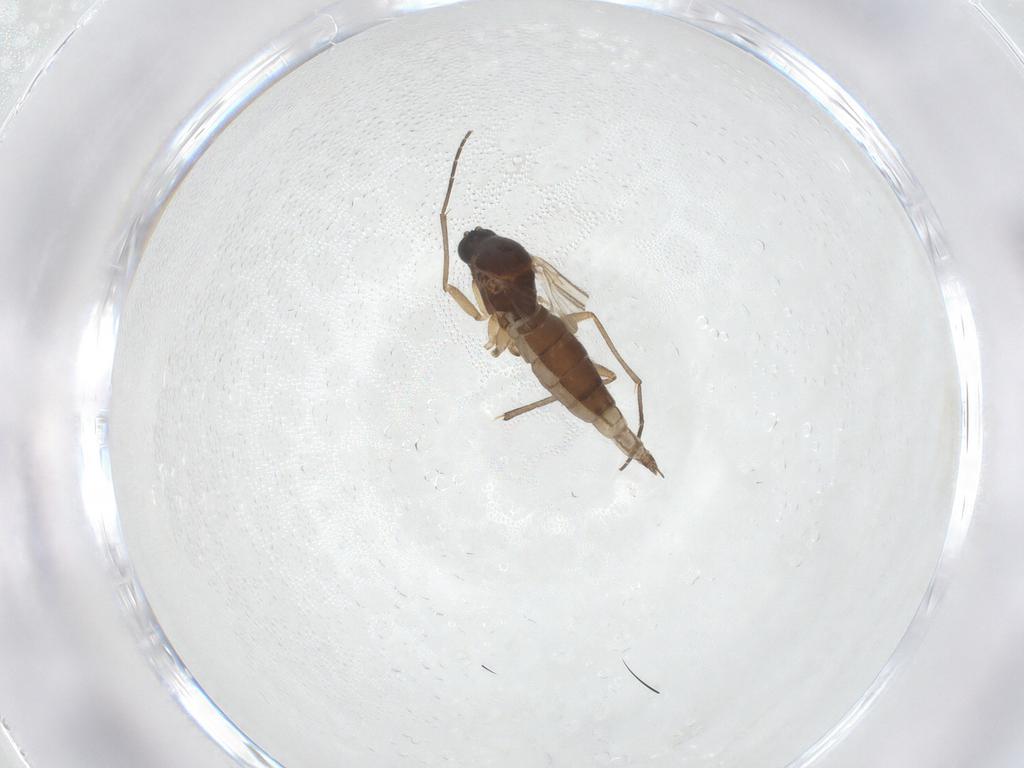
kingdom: Animalia
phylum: Arthropoda
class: Insecta
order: Diptera
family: Sciaridae
